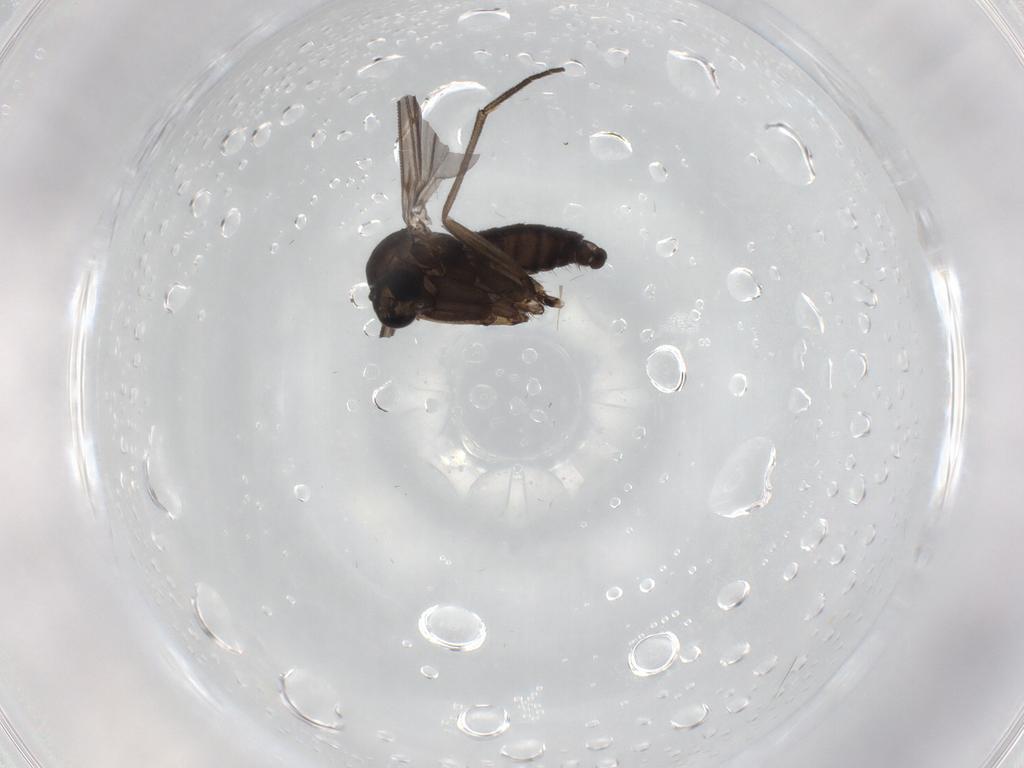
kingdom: Animalia
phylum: Arthropoda
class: Insecta
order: Diptera
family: Sciaridae
